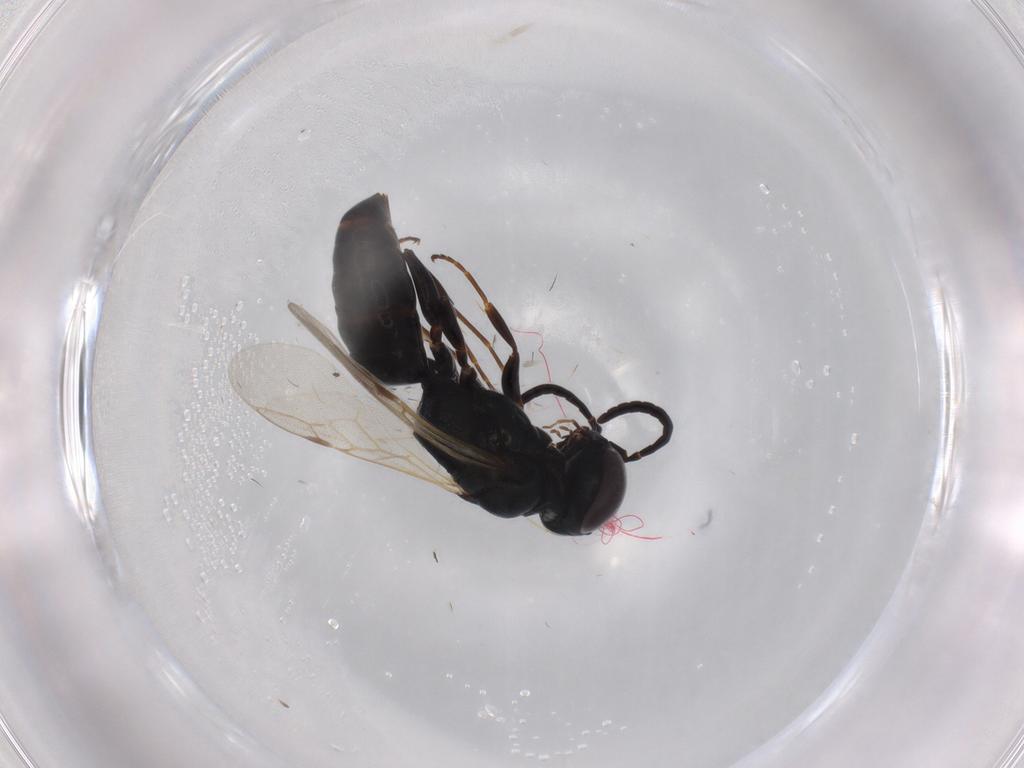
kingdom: Animalia
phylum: Arthropoda
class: Insecta
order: Hymenoptera
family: Crabronidae
